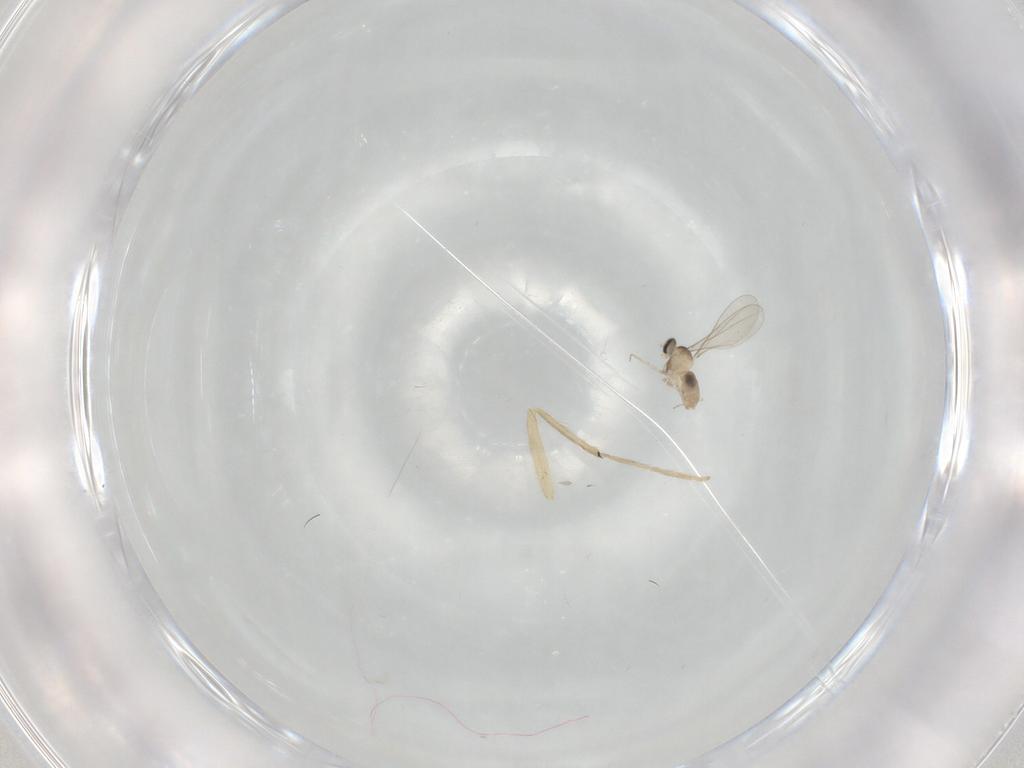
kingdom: Animalia
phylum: Arthropoda
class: Insecta
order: Diptera
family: Cecidomyiidae
